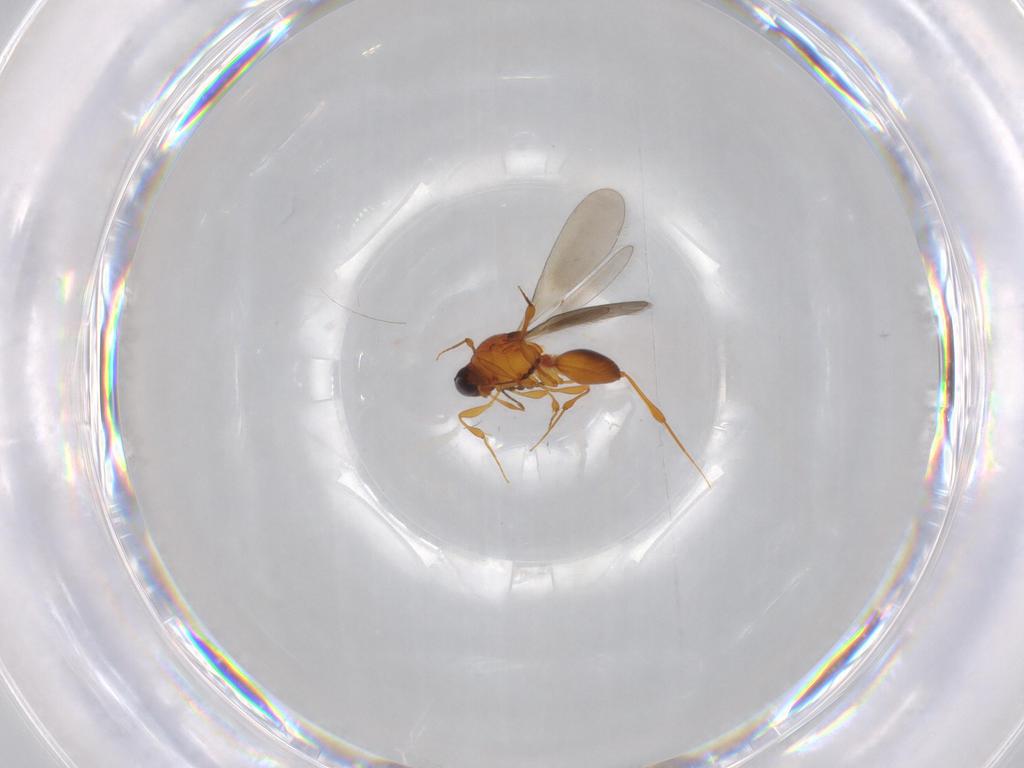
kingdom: Animalia
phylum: Arthropoda
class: Insecta
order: Hymenoptera
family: Platygastridae
